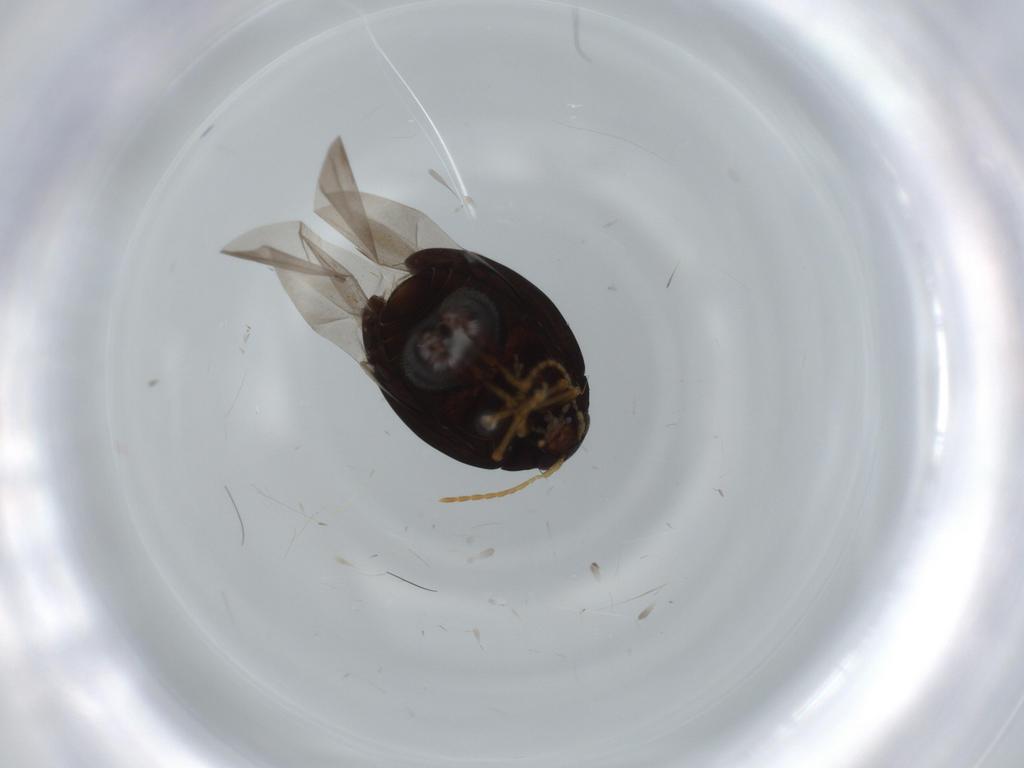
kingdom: Animalia
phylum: Arthropoda
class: Insecta
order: Coleoptera
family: Chrysomelidae
